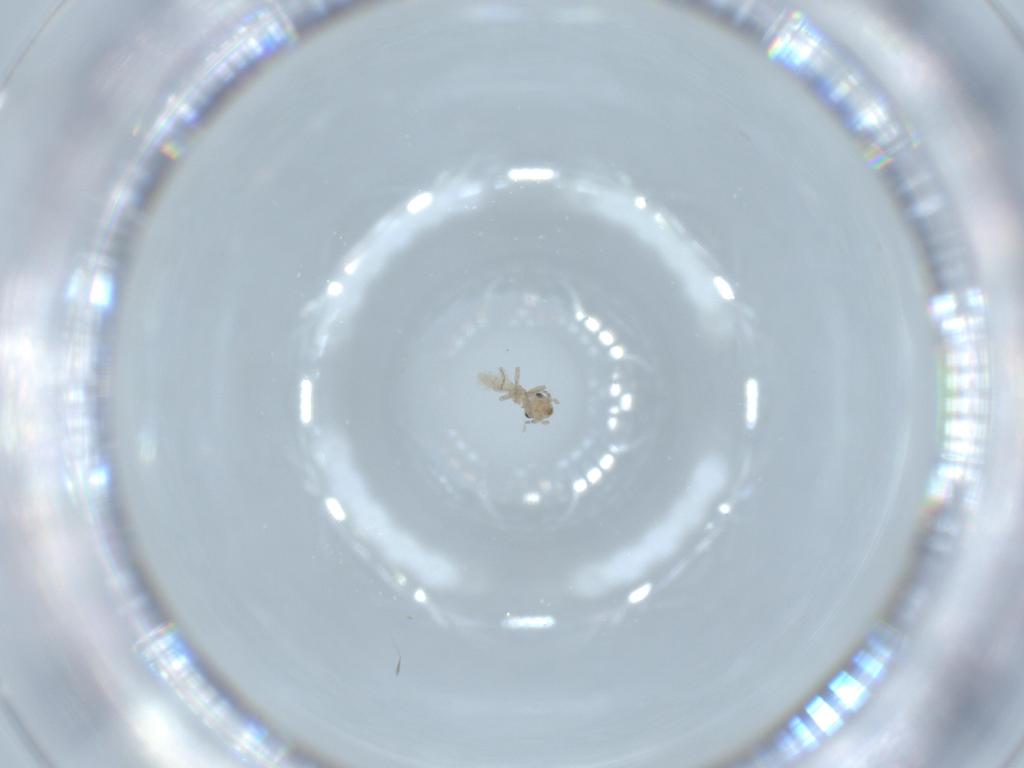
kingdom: Animalia
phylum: Arthropoda
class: Insecta
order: Psocodea
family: Lepidopsocidae
